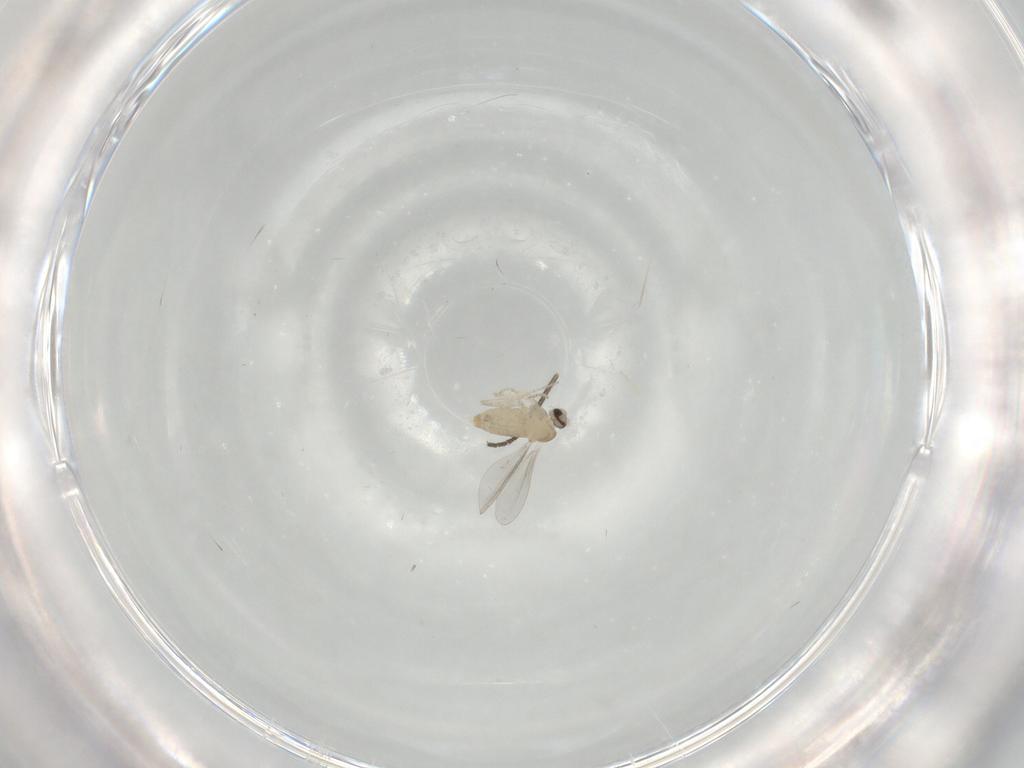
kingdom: Animalia
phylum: Arthropoda
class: Insecta
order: Diptera
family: Cecidomyiidae
